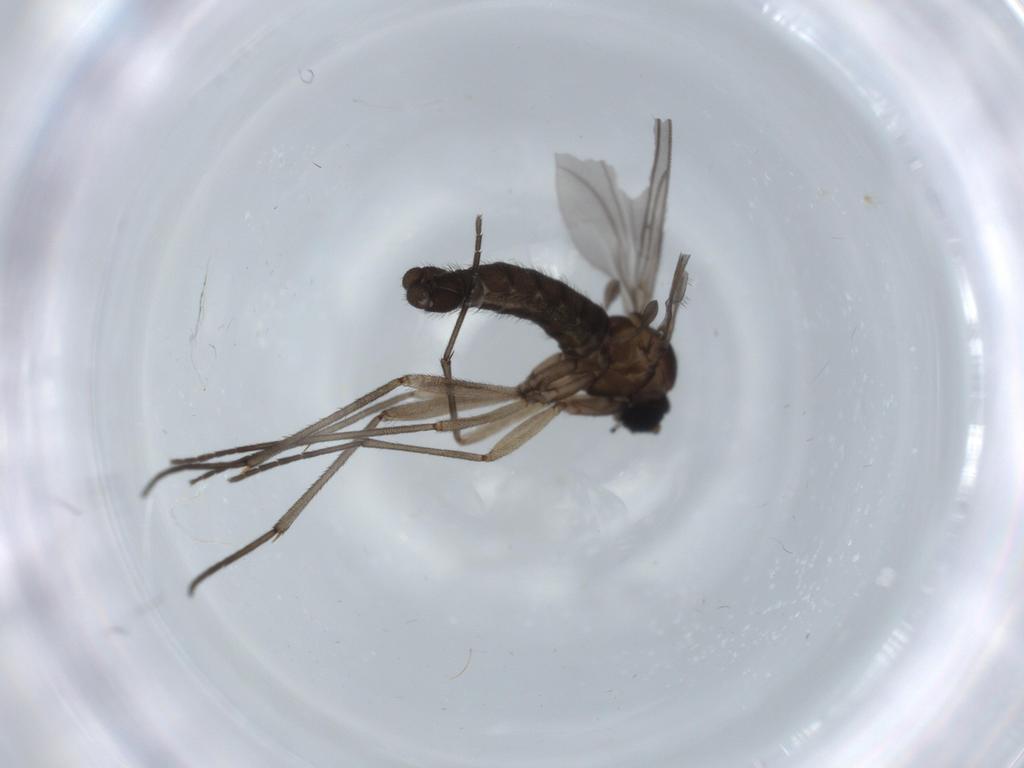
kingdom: Animalia
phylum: Arthropoda
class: Insecta
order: Diptera
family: Sciaridae
